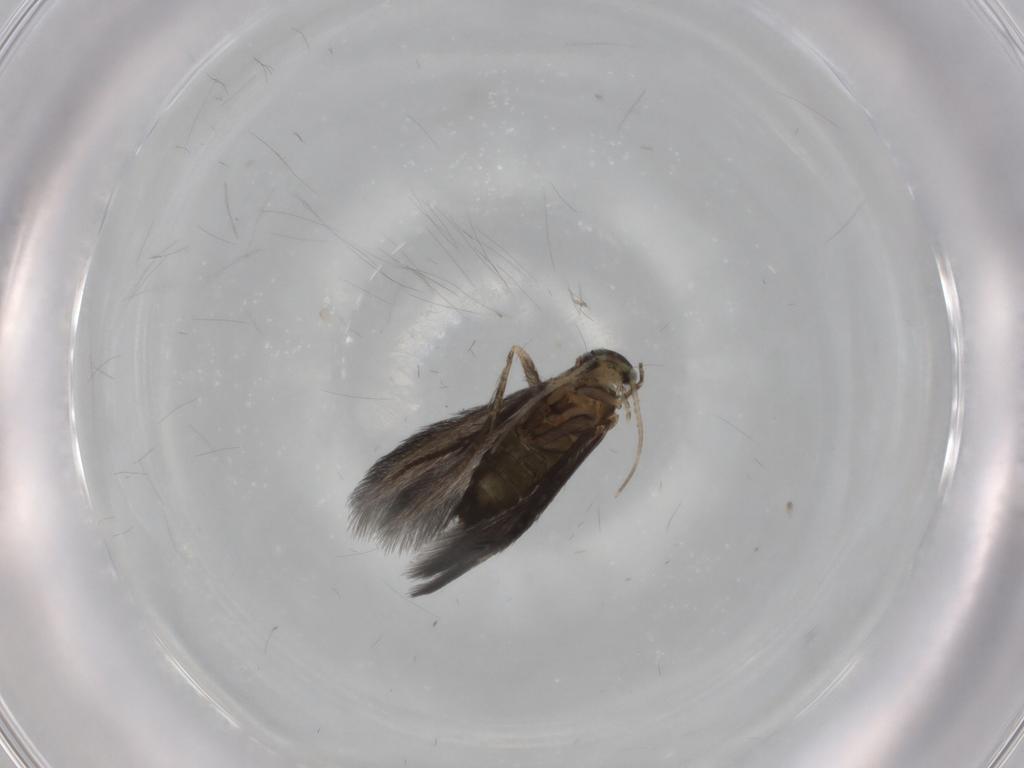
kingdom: Animalia
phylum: Arthropoda
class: Insecta
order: Trichoptera
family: Hydroptilidae
